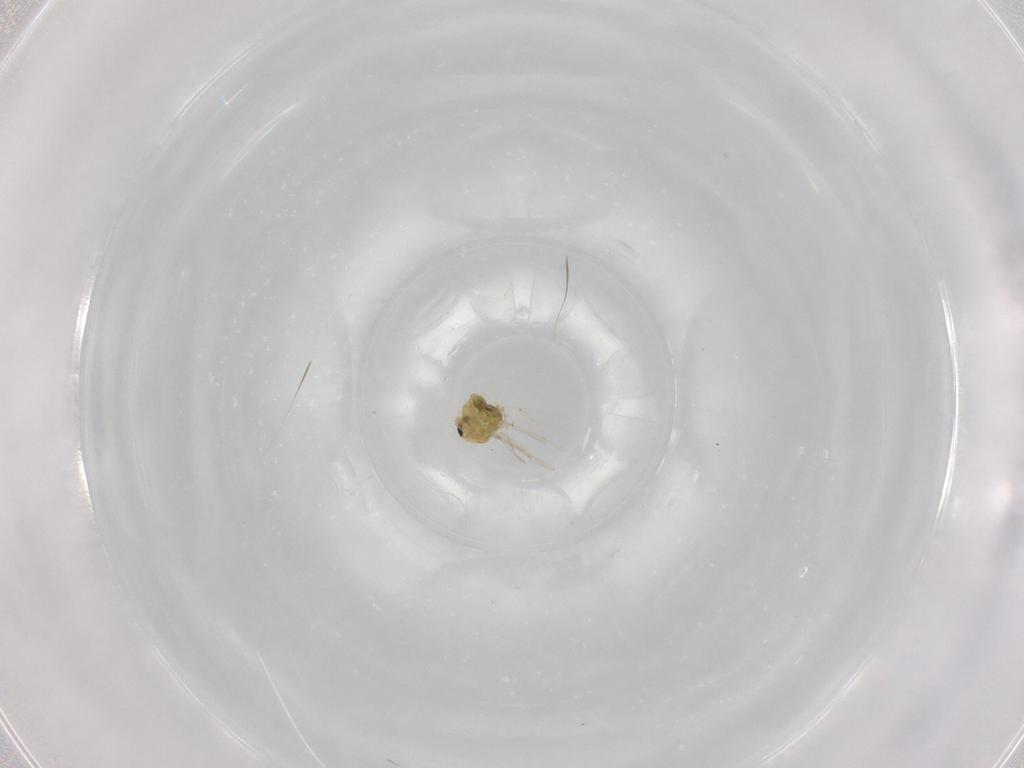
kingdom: Animalia
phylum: Arthropoda
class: Insecta
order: Diptera
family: Chironomidae
